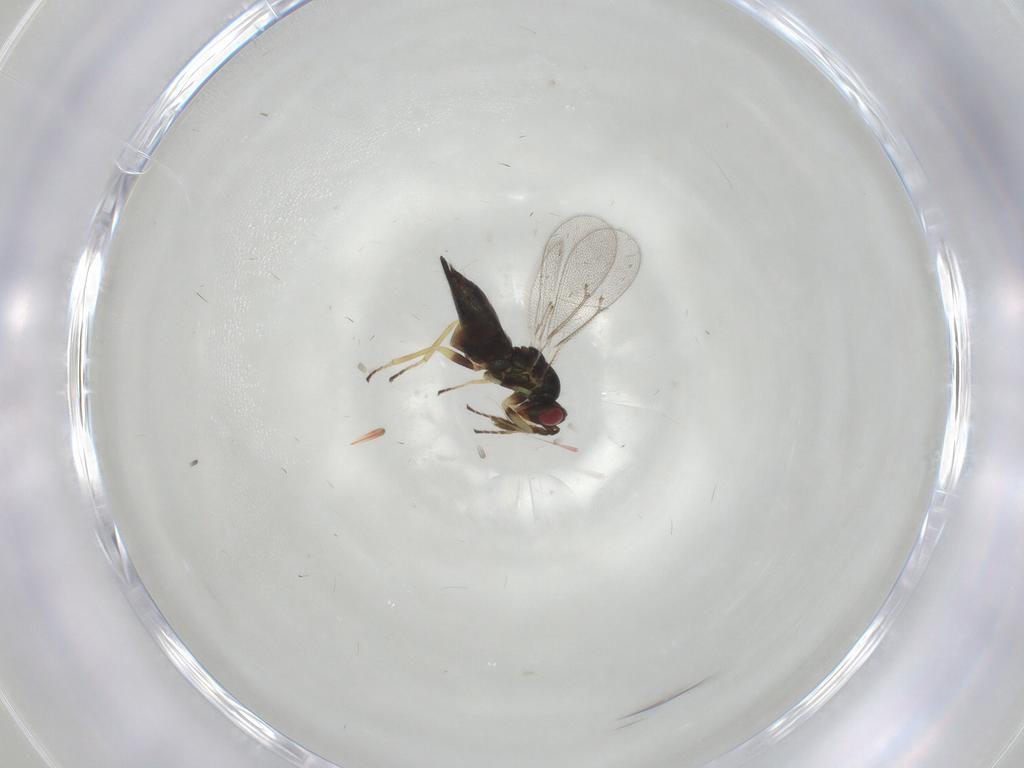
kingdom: Animalia
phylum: Arthropoda
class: Insecta
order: Hymenoptera
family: Eulophidae
